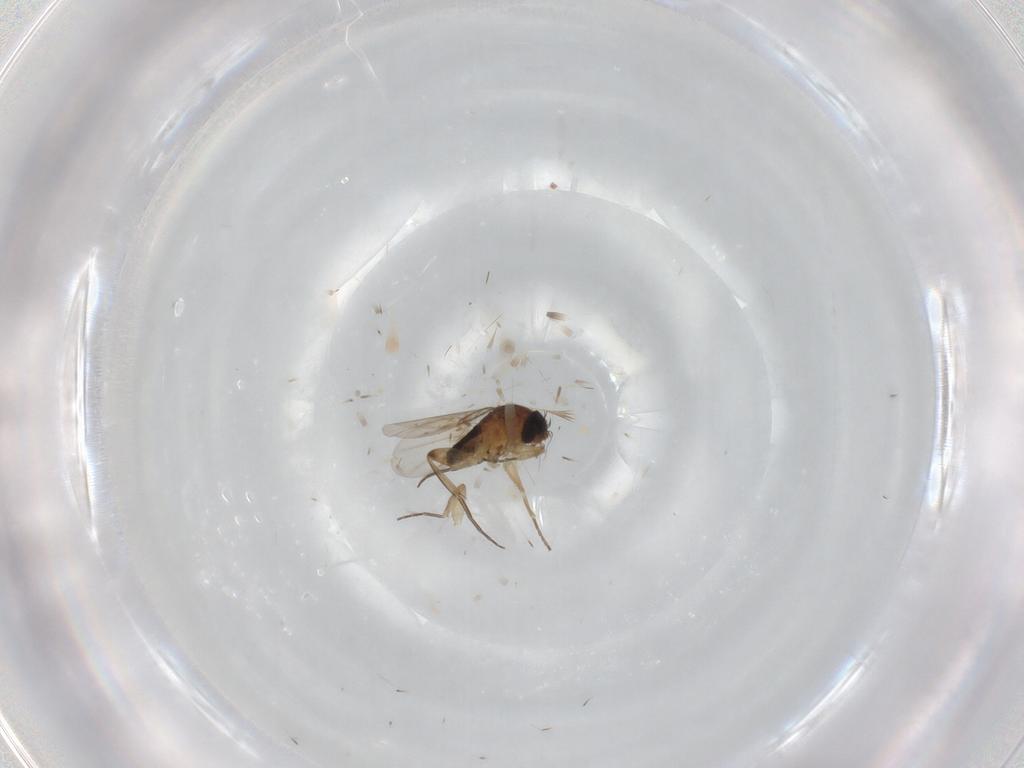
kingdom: Animalia
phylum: Arthropoda
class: Insecta
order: Diptera
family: Phoridae
